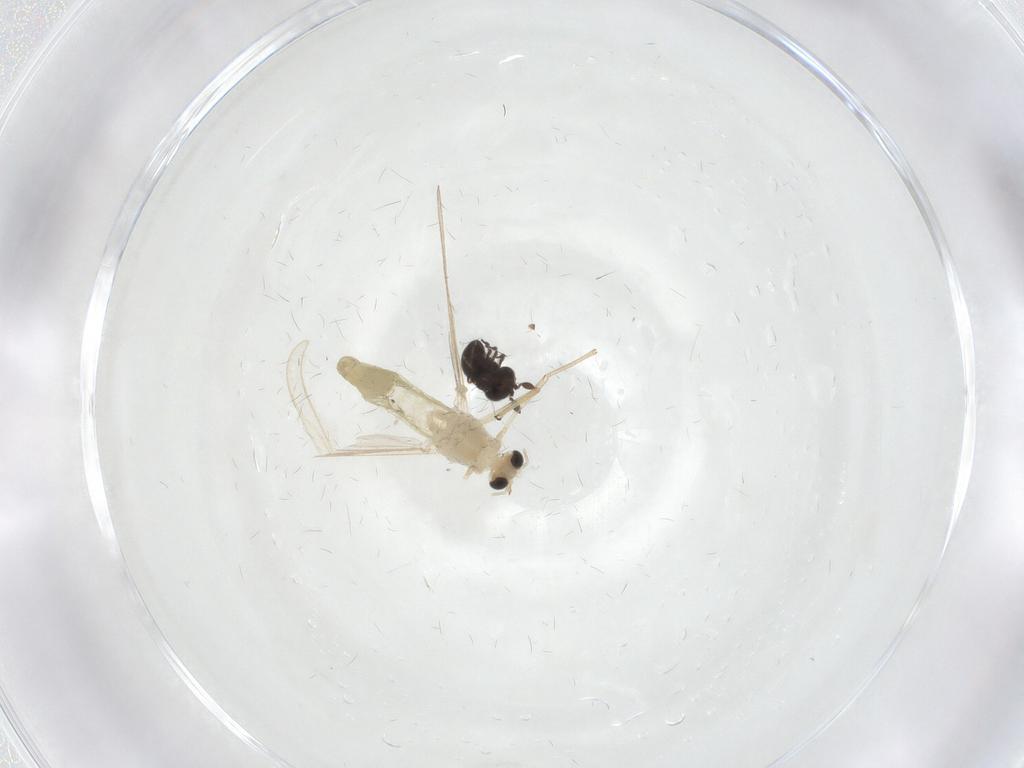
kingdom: Animalia
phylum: Arthropoda
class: Insecta
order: Diptera
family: Chironomidae
